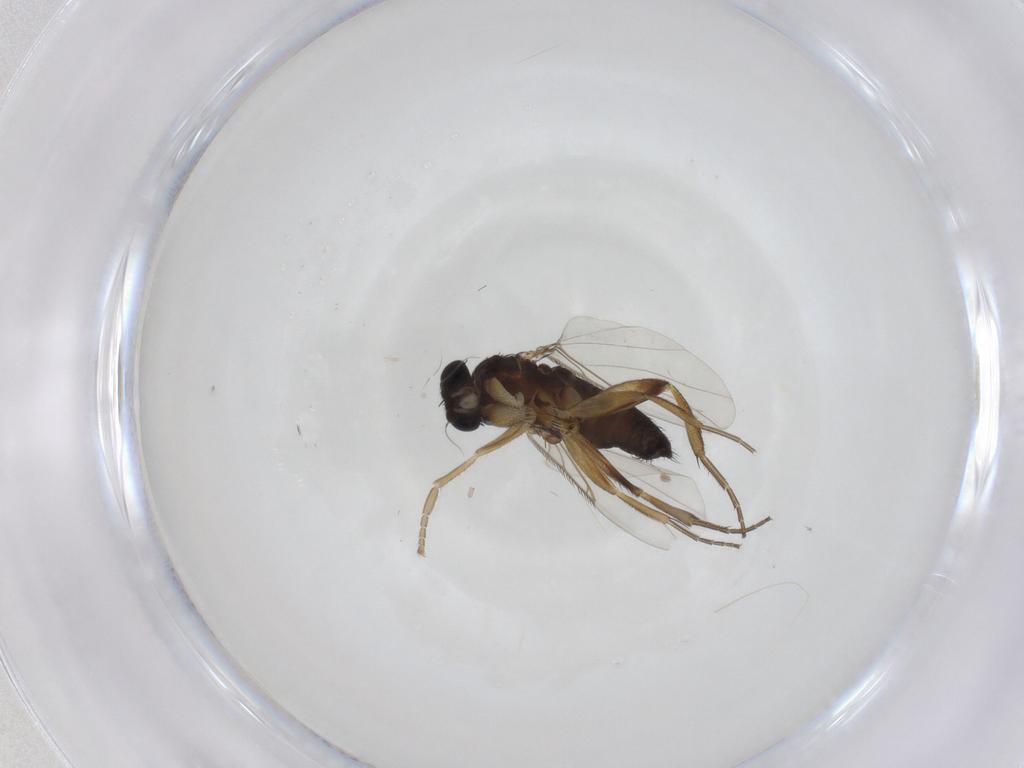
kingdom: Animalia
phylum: Arthropoda
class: Insecta
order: Diptera
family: Phoridae
